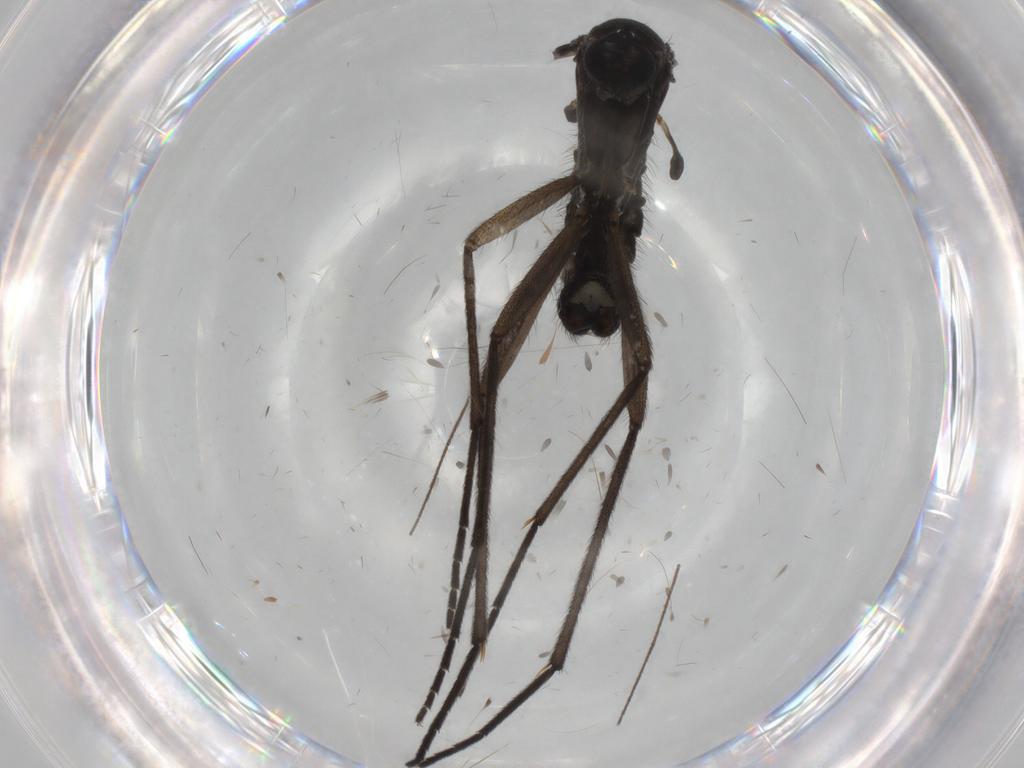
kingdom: Animalia
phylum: Arthropoda
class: Insecta
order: Diptera
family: Sciaridae
